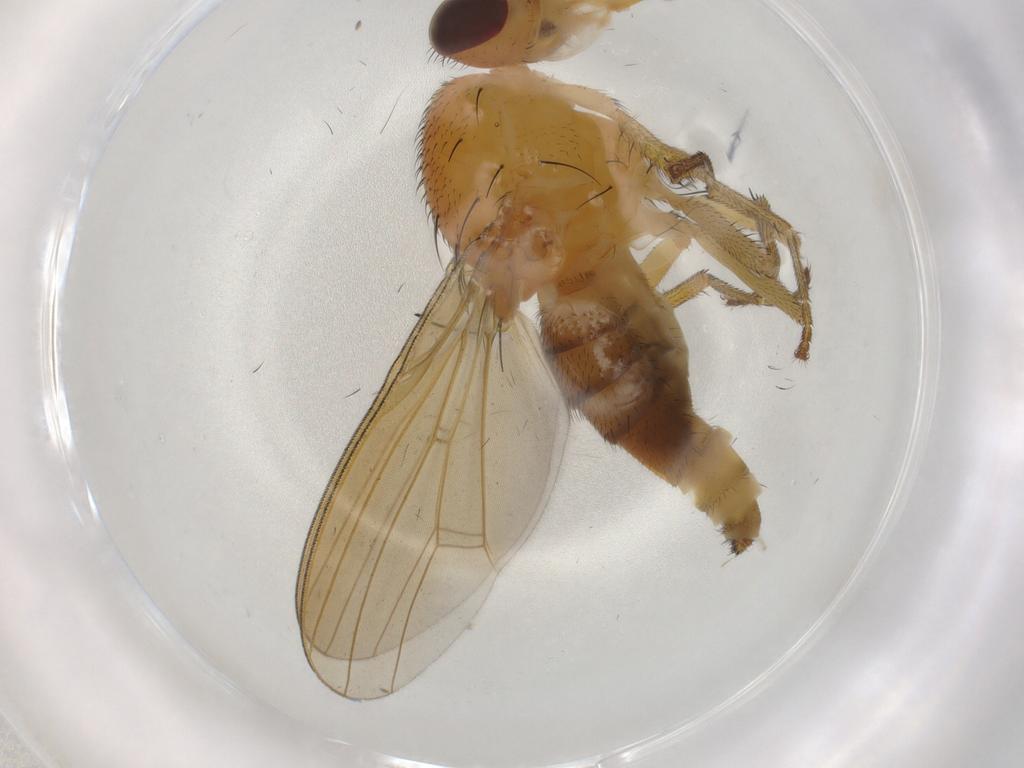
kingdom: Animalia
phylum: Arthropoda
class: Insecta
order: Diptera
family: Lauxaniidae
